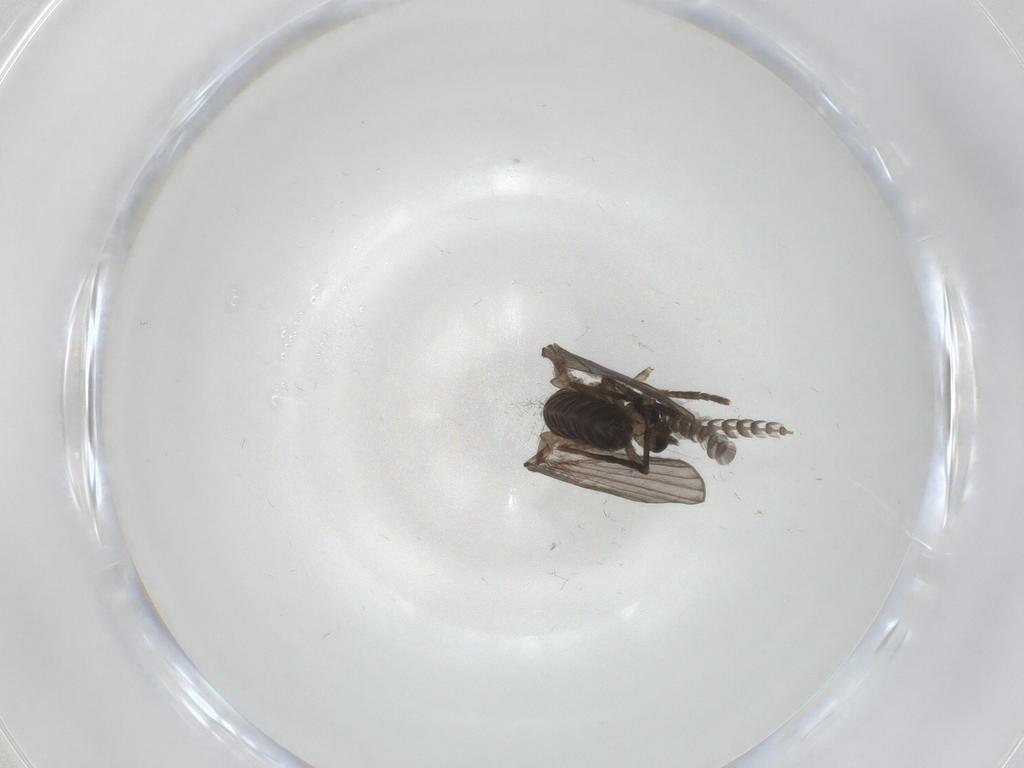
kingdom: Animalia
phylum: Arthropoda
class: Insecta
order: Diptera
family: Psychodidae
